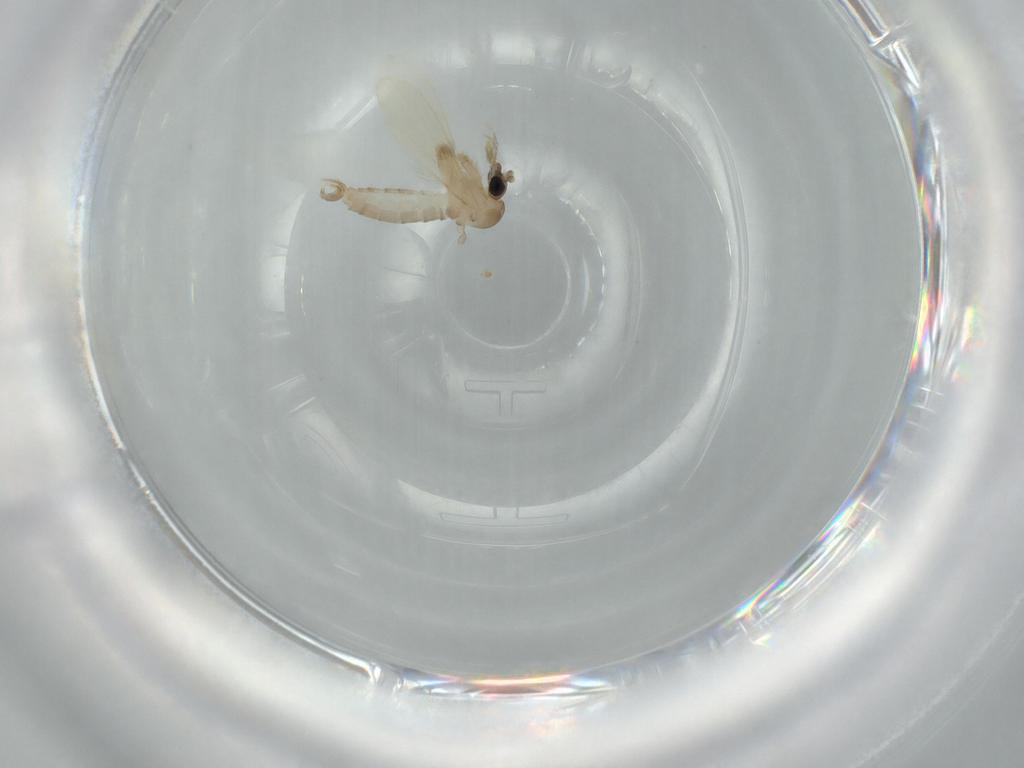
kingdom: Animalia
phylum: Arthropoda
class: Insecta
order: Diptera
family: Psychodidae
